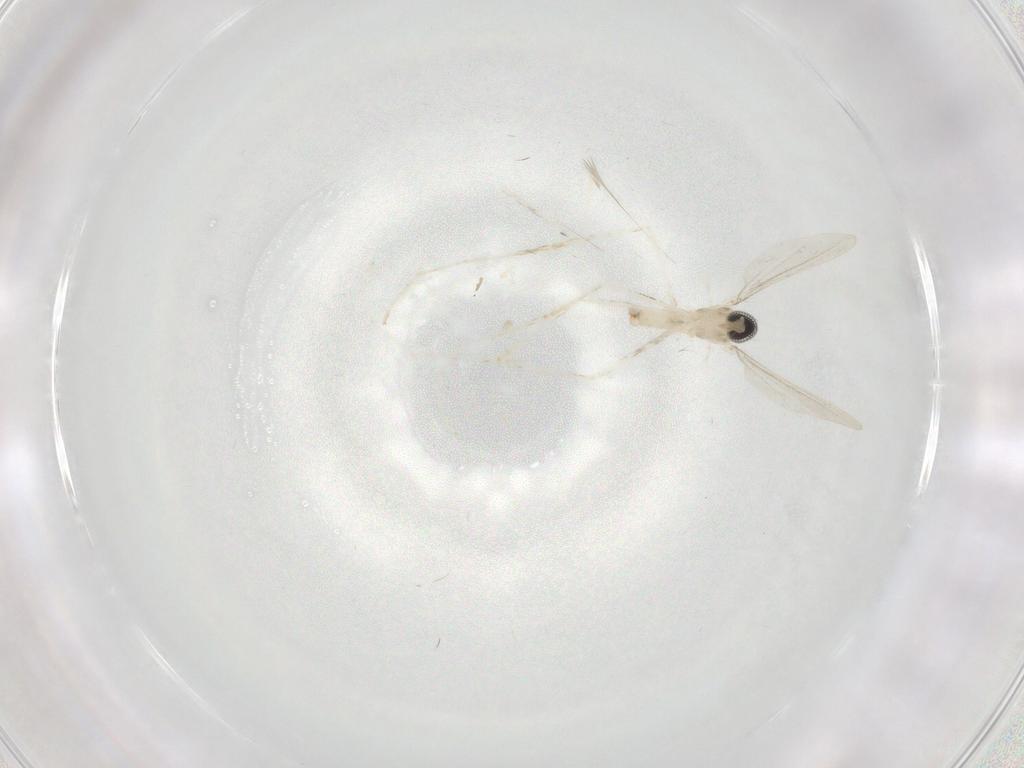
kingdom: Animalia
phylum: Arthropoda
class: Insecta
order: Diptera
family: Cecidomyiidae
